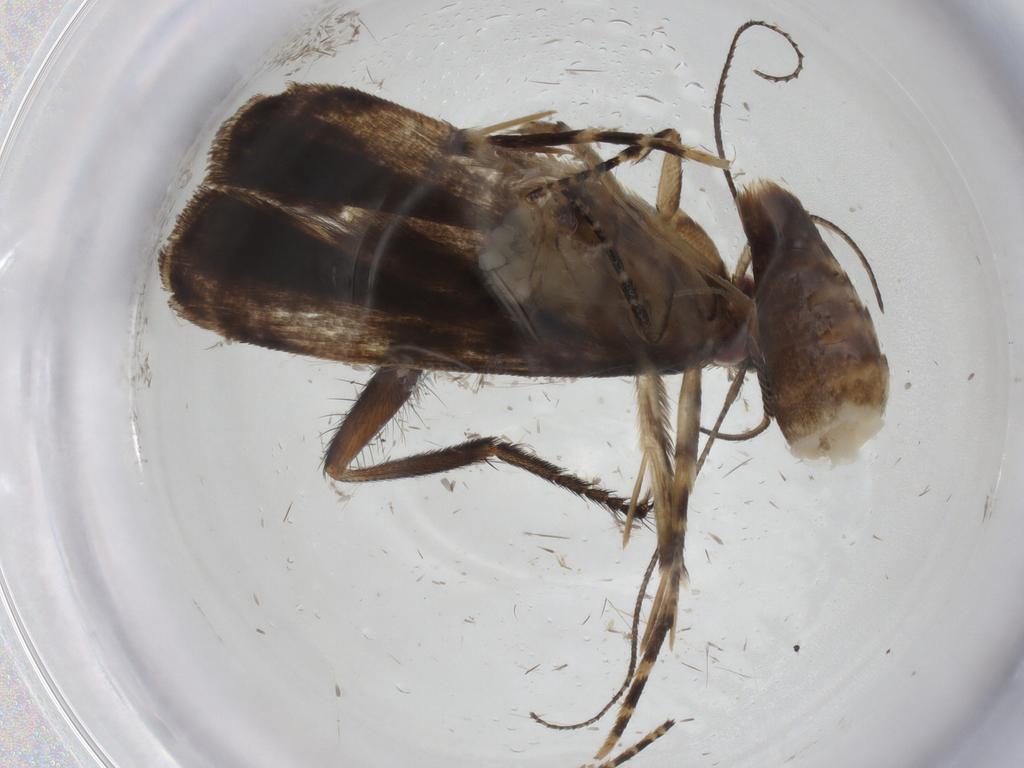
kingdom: Animalia
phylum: Arthropoda
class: Insecta
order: Lepidoptera
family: Gelechiidae
